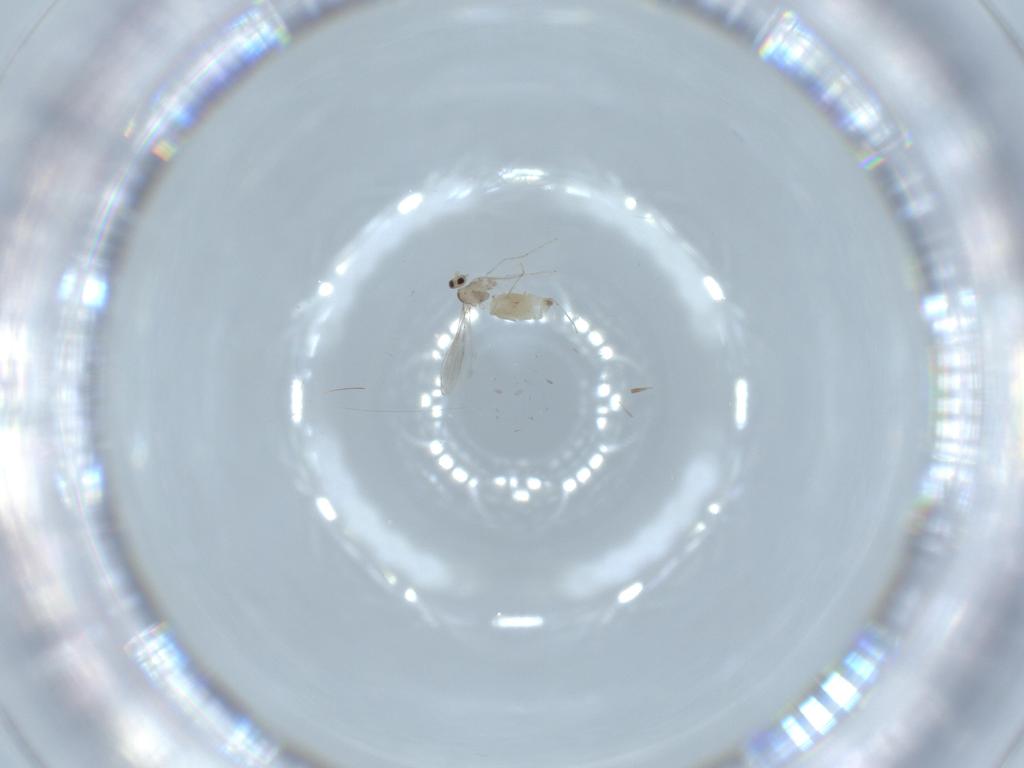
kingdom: Animalia
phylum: Arthropoda
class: Insecta
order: Diptera
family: Cecidomyiidae
